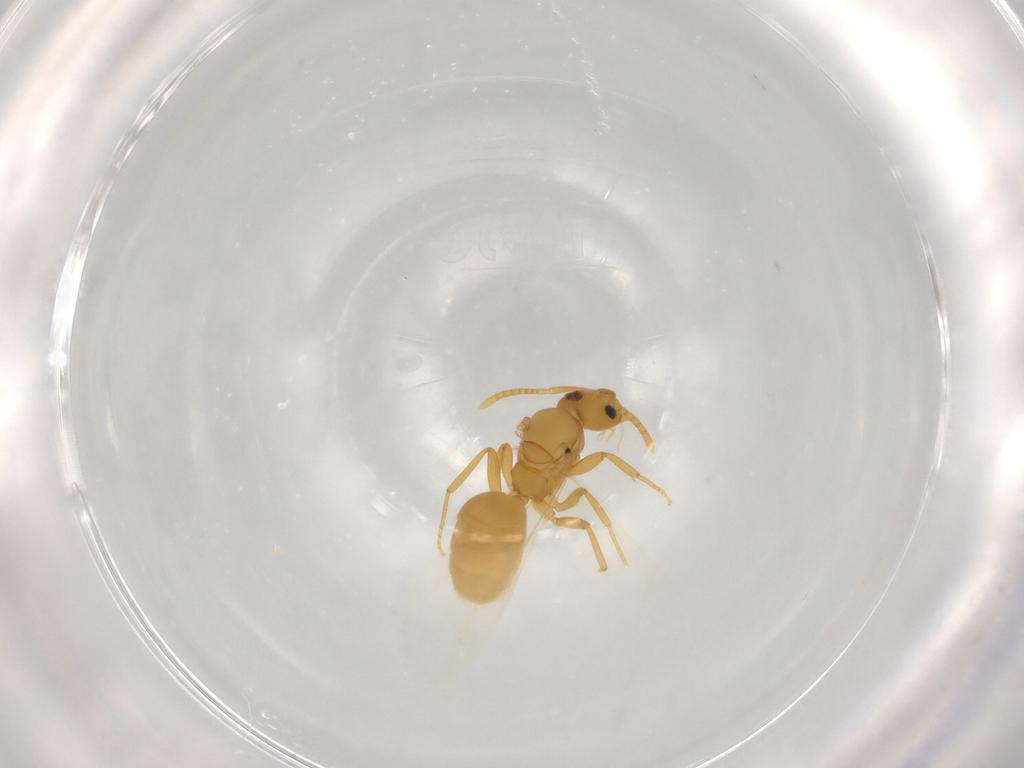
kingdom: Animalia
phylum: Arthropoda
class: Insecta
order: Hymenoptera
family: Formicidae
